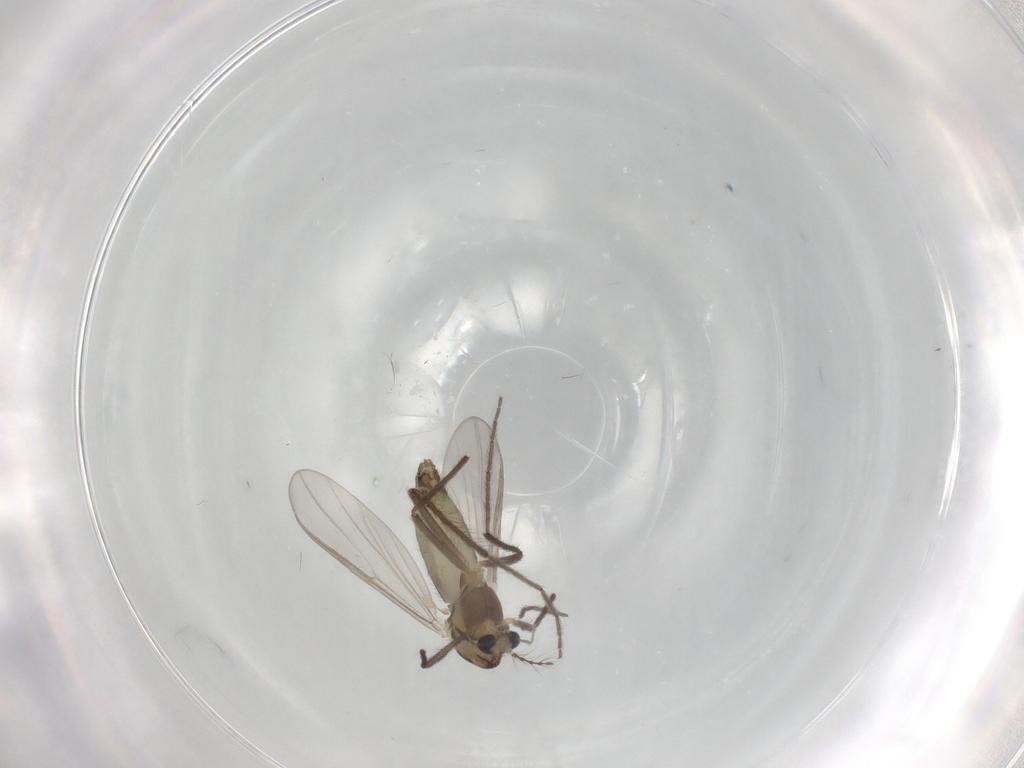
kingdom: Animalia
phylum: Arthropoda
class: Insecta
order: Diptera
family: Chironomidae
